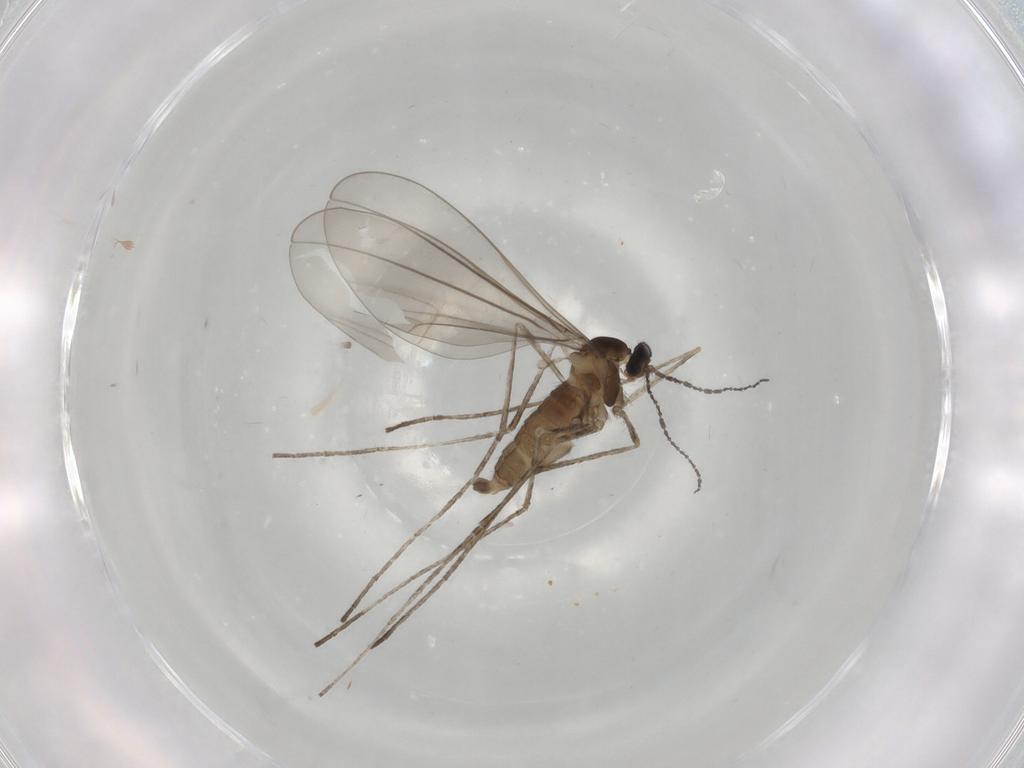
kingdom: Animalia
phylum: Arthropoda
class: Insecta
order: Diptera
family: Cecidomyiidae
